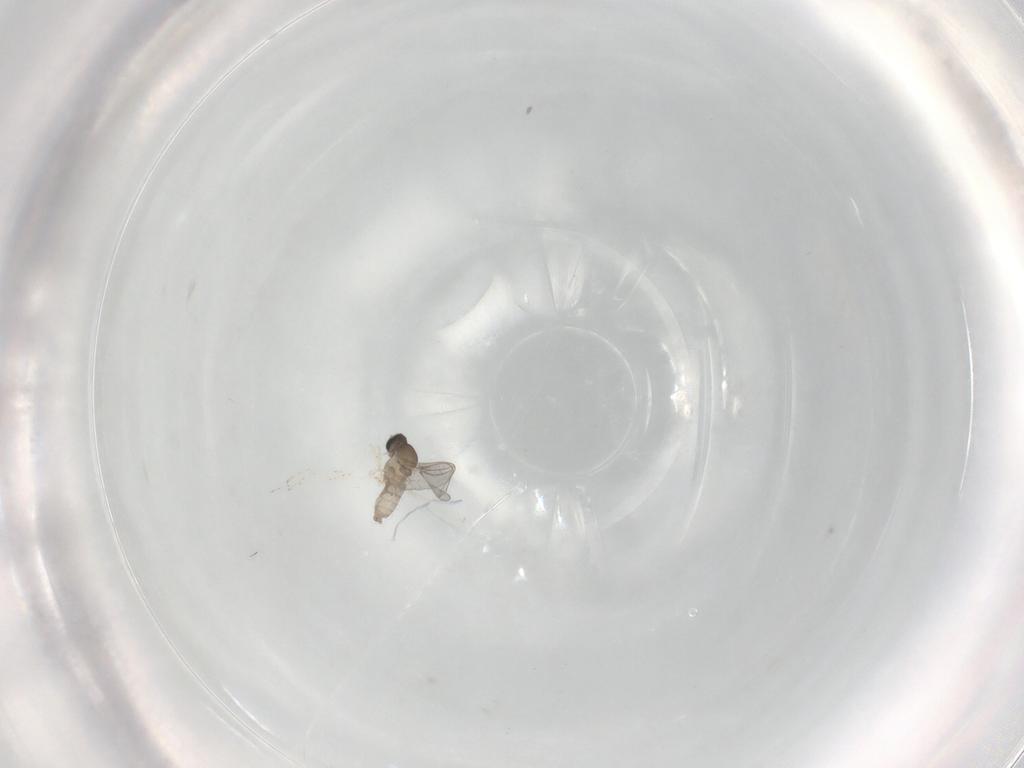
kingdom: Animalia
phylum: Arthropoda
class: Insecta
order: Diptera
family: Cecidomyiidae
